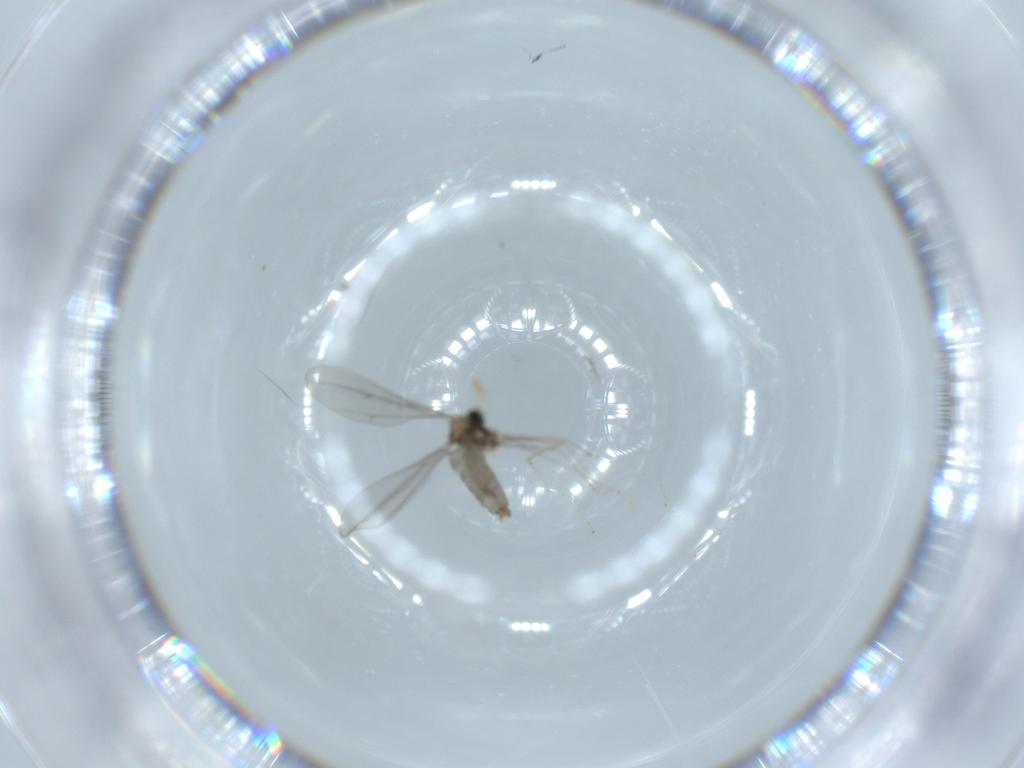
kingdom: Animalia
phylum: Arthropoda
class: Insecta
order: Diptera
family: Cecidomyiidae
